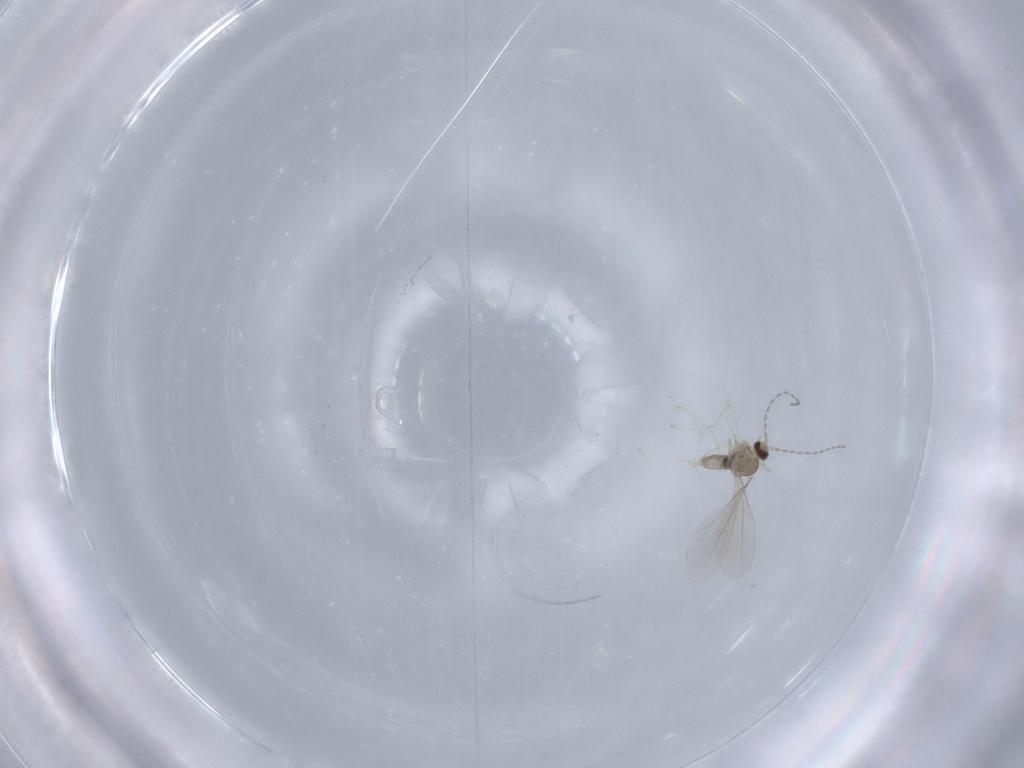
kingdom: Animalia
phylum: Arthropoda
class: Insecta
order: Diptera
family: Cecidomyiidae
